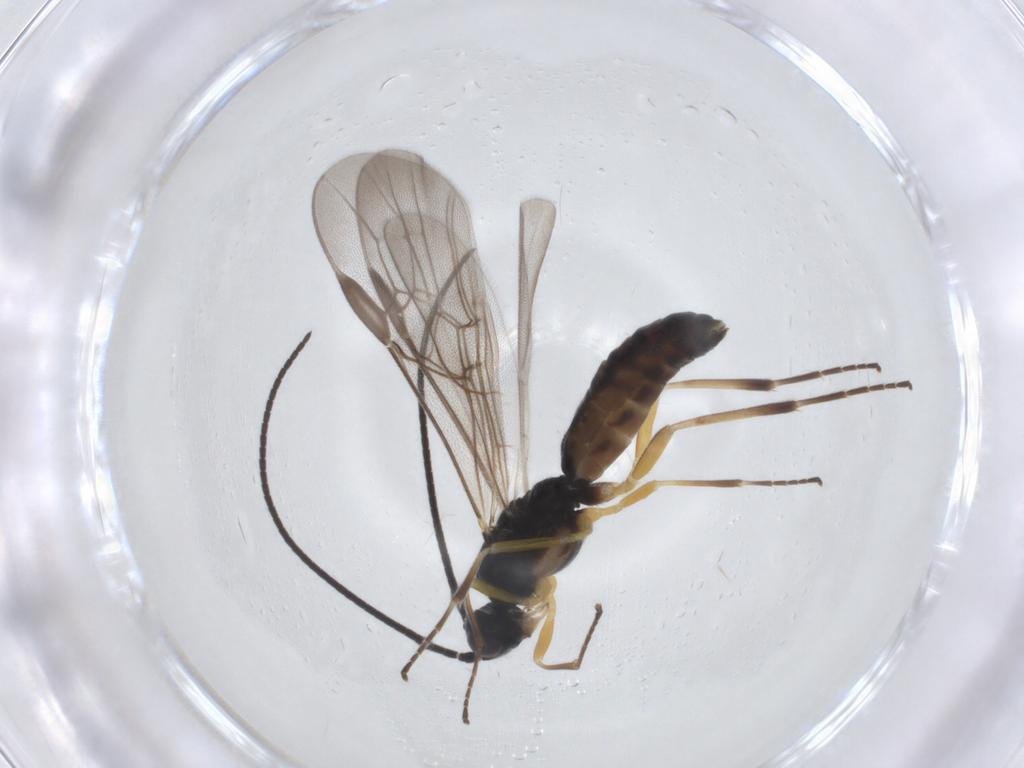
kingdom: Animalia
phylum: Arthropoda
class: Insecta
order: Hymenoptera
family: Braconidae
